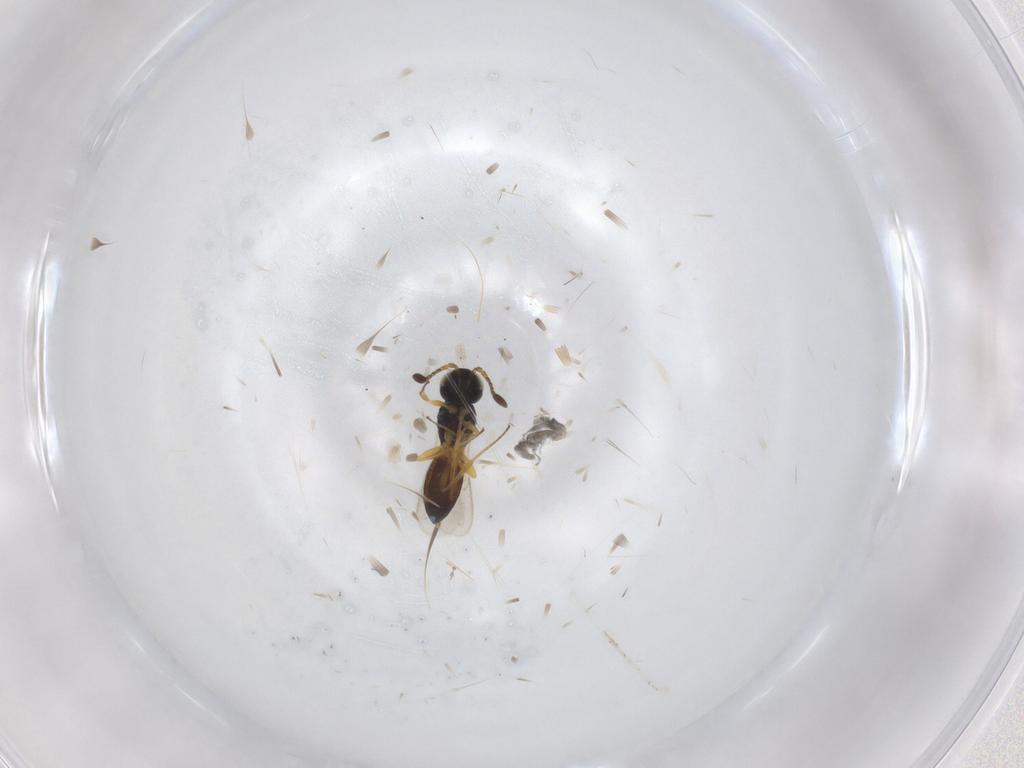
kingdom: Animalia
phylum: Arthropoda
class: Insecta
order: Hymenoptera
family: Scelionidae
